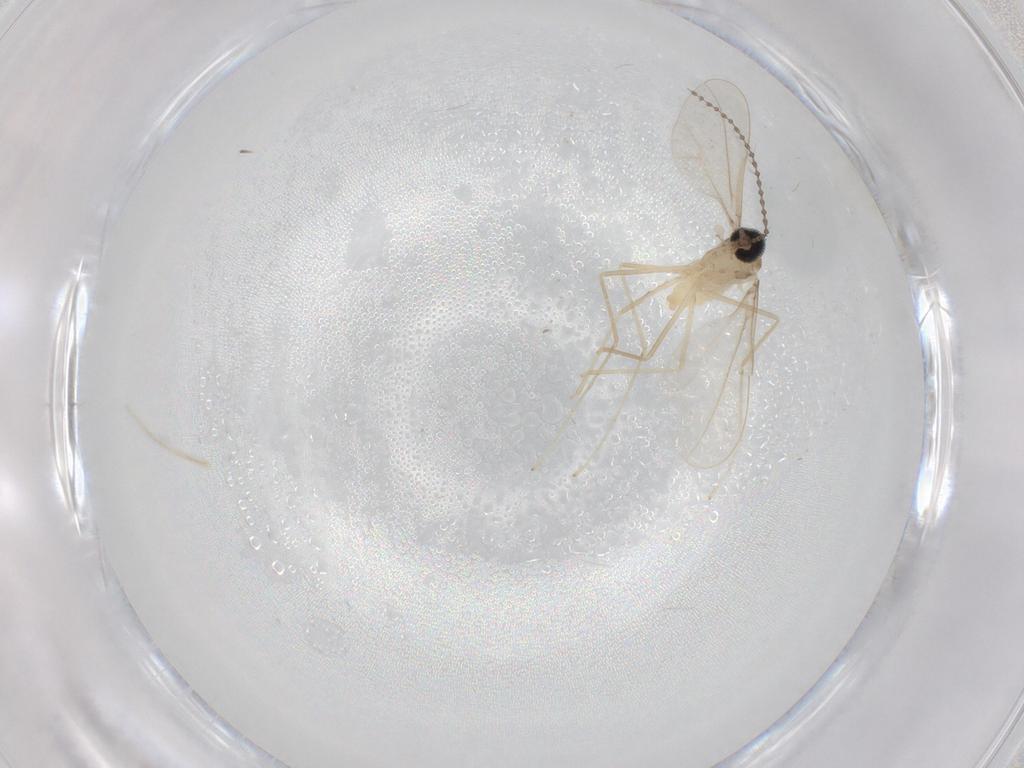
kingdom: Animalia
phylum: Arthropoda
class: Insecta
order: Diptera
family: Cecidomyiidae
